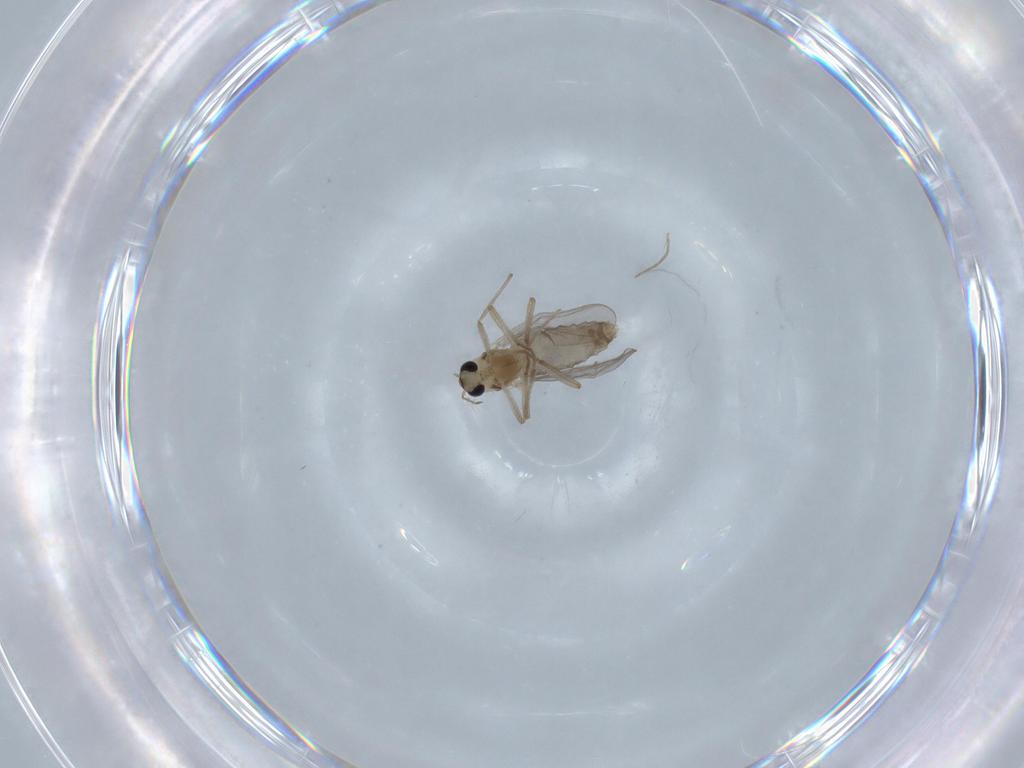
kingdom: Animalia
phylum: Arthropoda
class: Insecta
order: Diptera
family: Chironomidae
